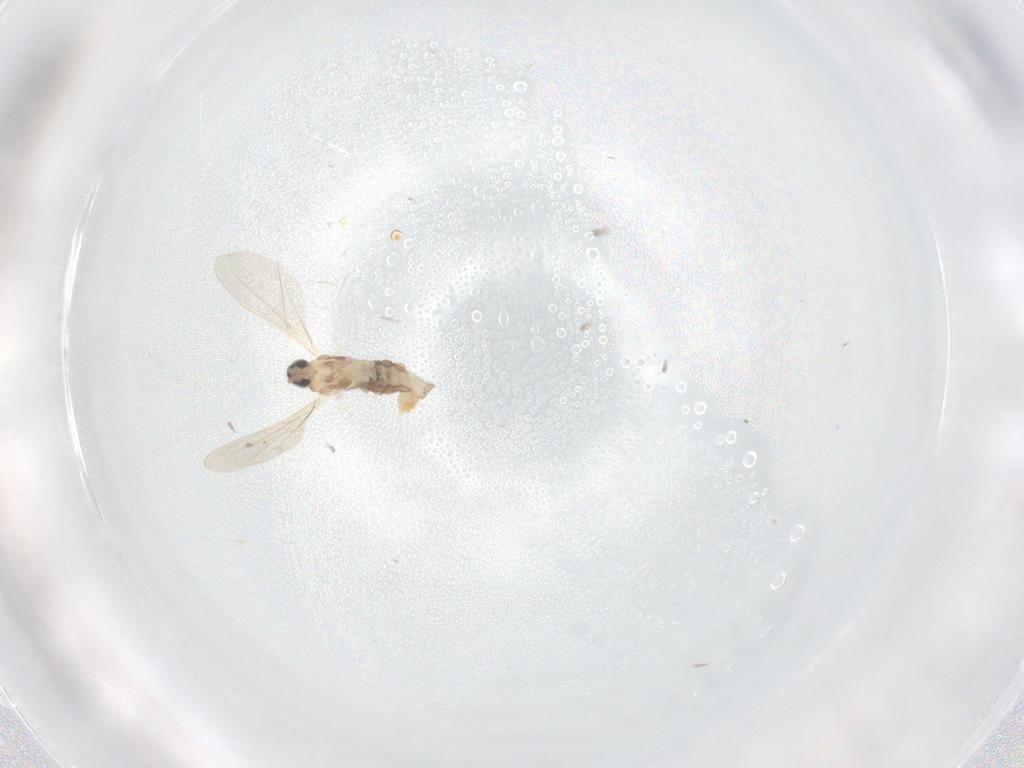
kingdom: Animalia
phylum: Arthropoda
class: Insecta
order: Diptera
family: Cecidomyiidae
